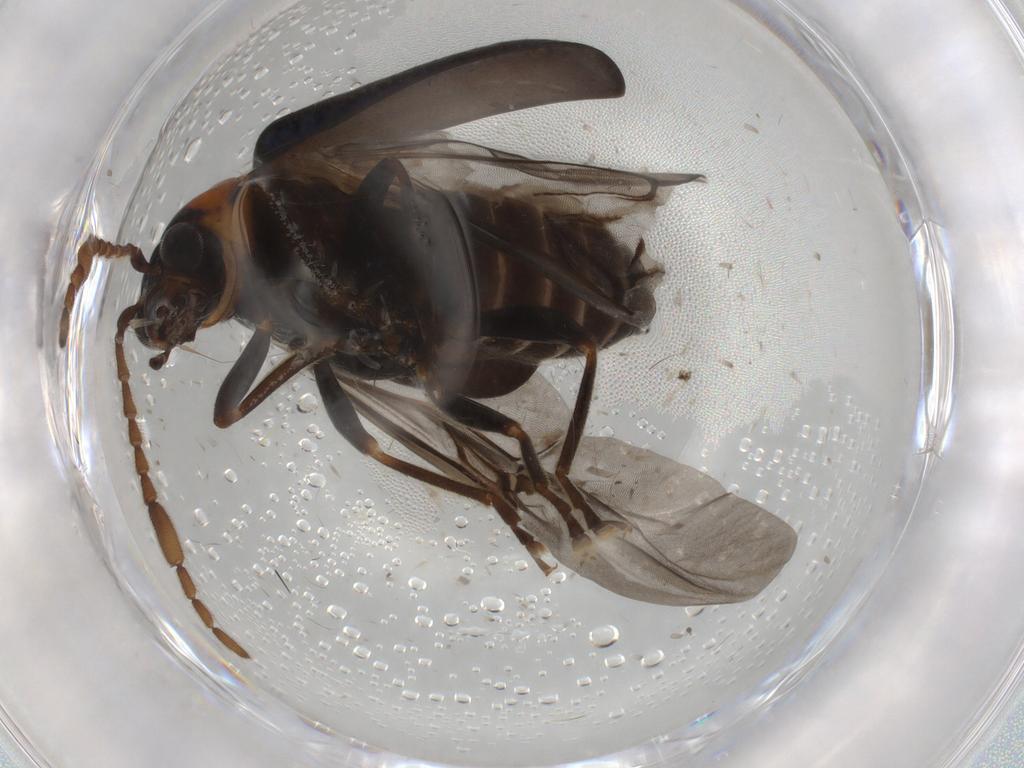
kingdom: Animalia
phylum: Arthropoda
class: Insecta
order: Coleoptera
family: Chrysomelidae
